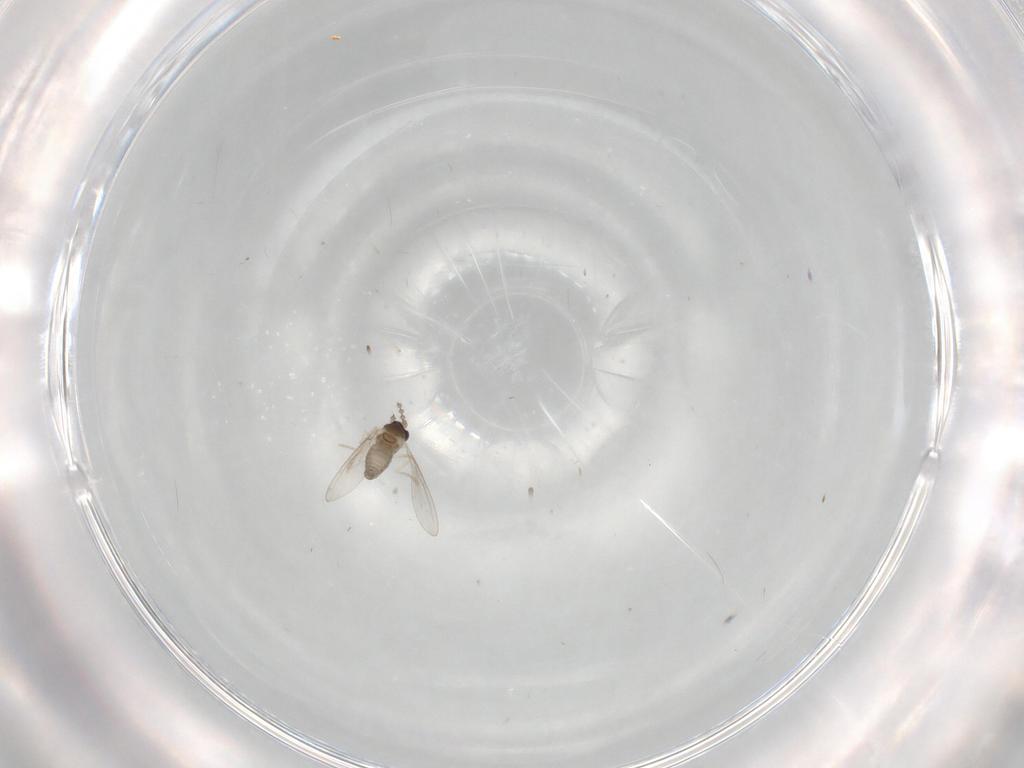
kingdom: Animalia
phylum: Arthropoda
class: Insecta
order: Diptera
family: Cecidomyiidae
